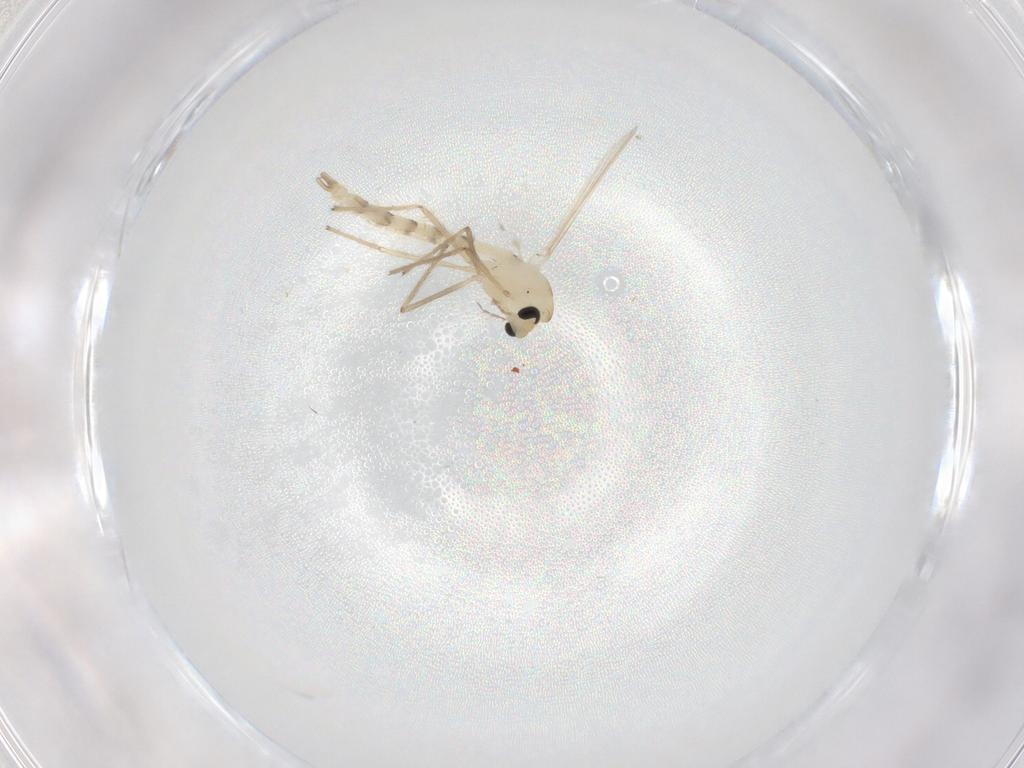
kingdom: Animalia
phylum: Arthropoda
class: Insecta
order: Diptera
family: Chironomidae
